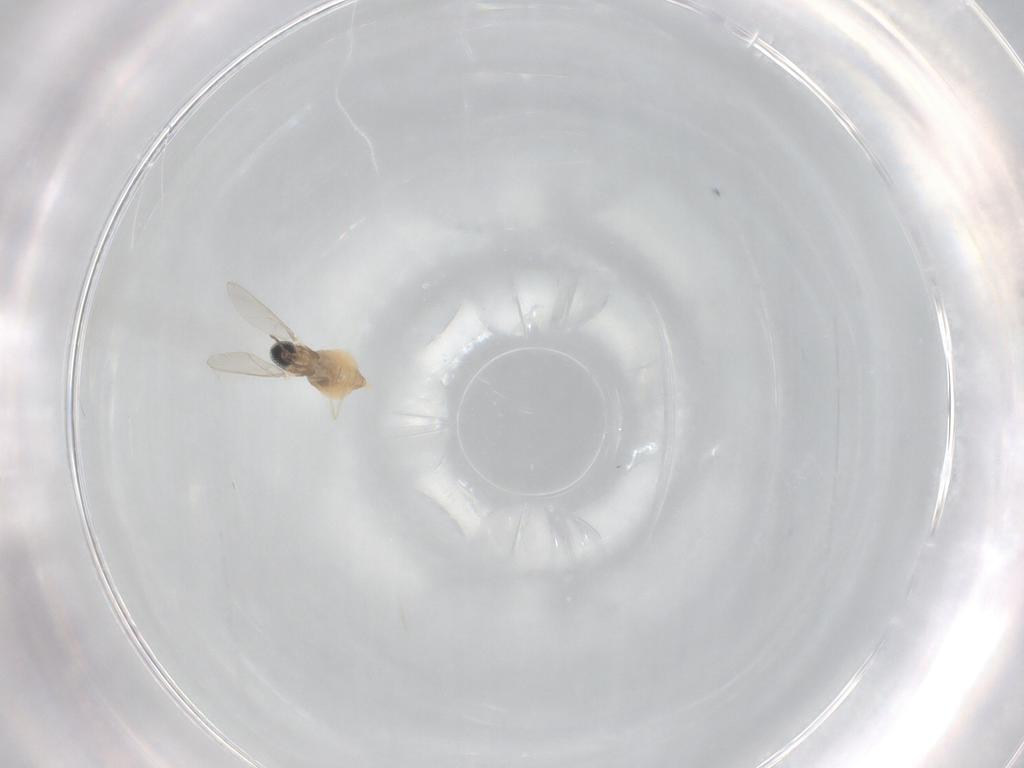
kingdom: Animalia
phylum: Arthropoda
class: Insecta
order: Diptera
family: Cecidomyiidae
